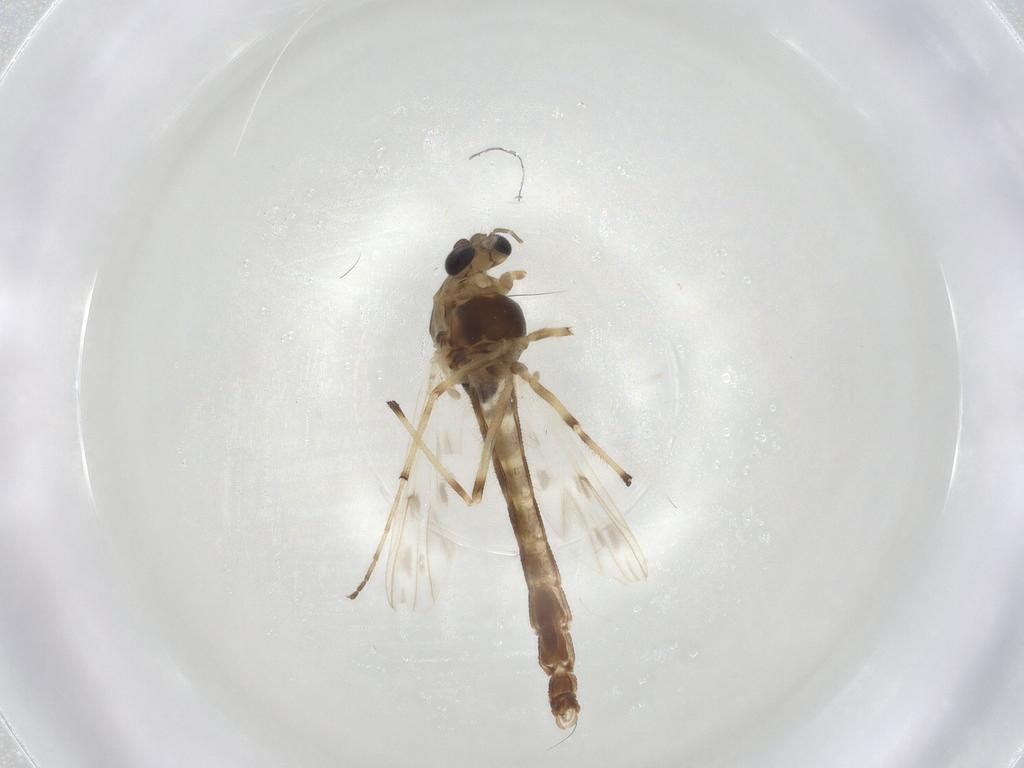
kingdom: Animalia
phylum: Arthropoda
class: Insecta
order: Diptera
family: Chironomidae
